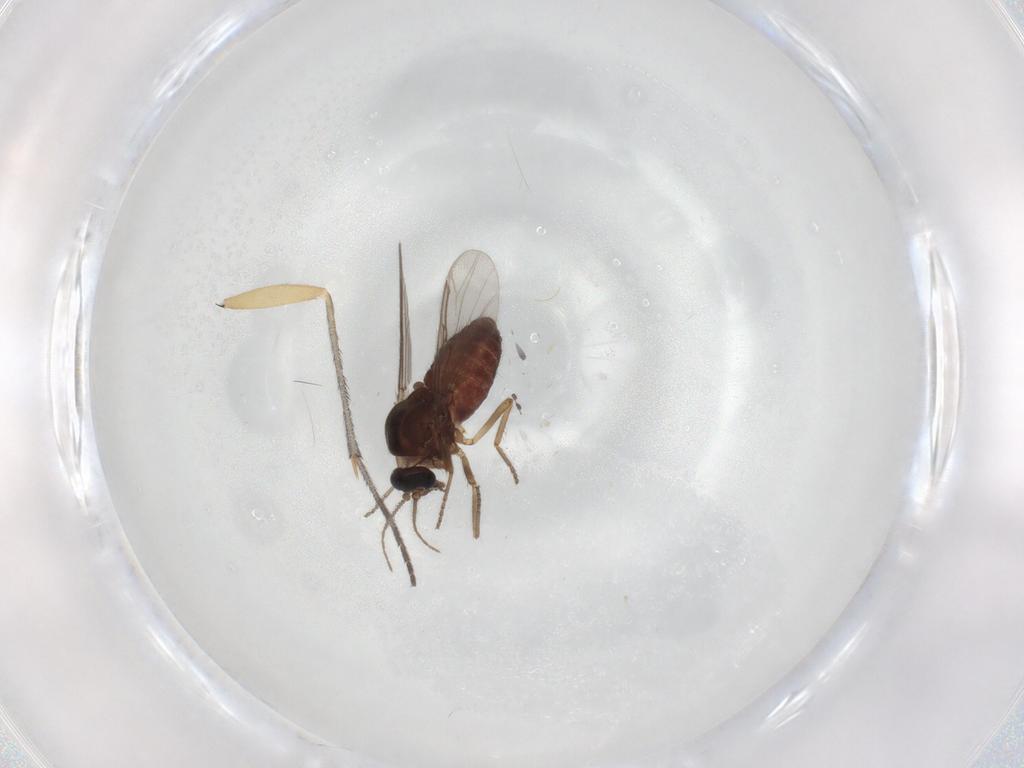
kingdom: Animalia
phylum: Arthropoda
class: Insecta
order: Diptera
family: Ceratopogonidae
